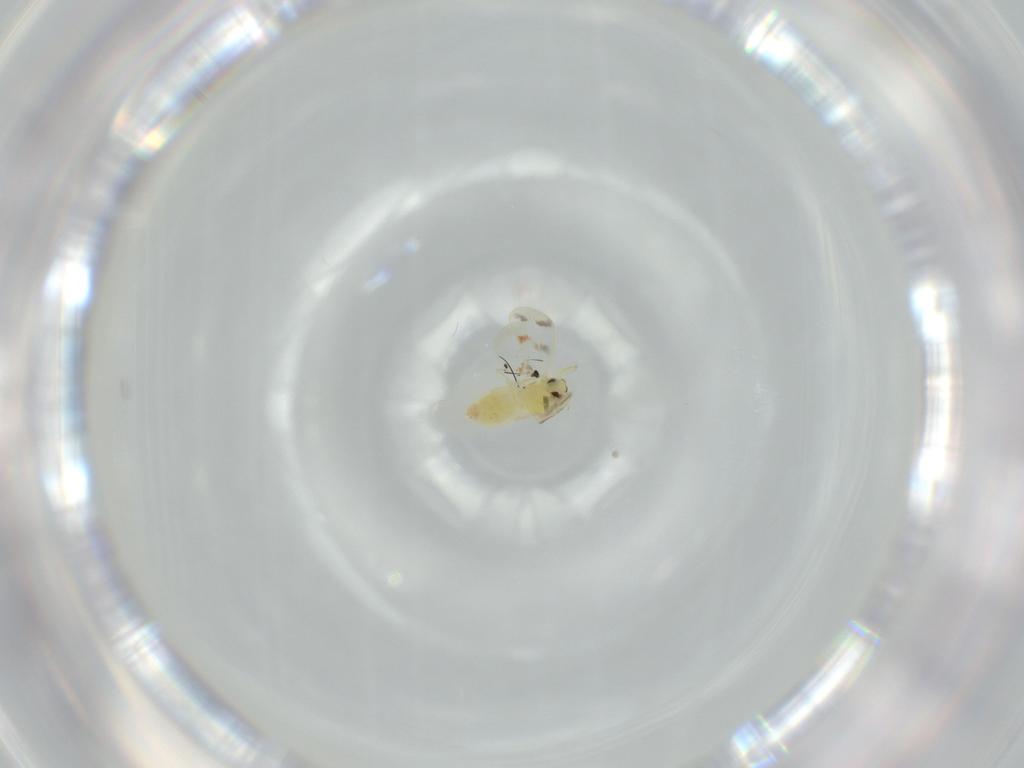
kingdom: Animalia
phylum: Arthropoda
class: Insecta
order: Hemiptera
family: Aleyrodidae
